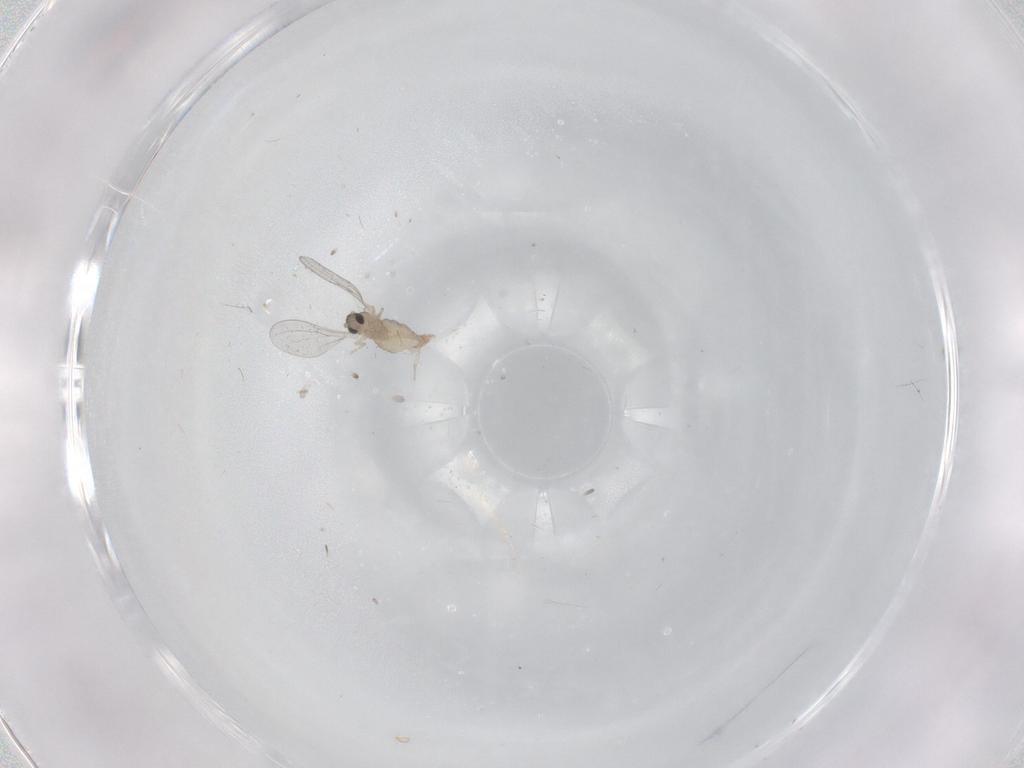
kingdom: Animalia
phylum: Arthropoda
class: Insecta
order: Diptera
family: Cecidomyiidae
